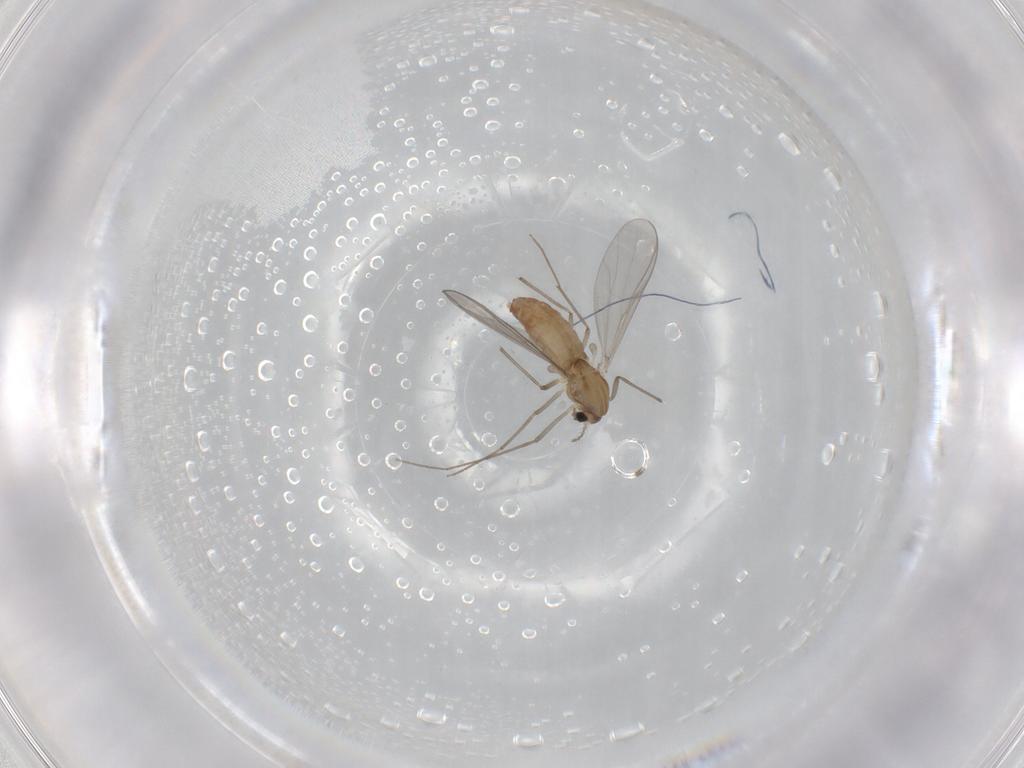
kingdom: Animalia
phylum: Arthropoda
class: Insecta
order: Diptera
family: Chironomidae
